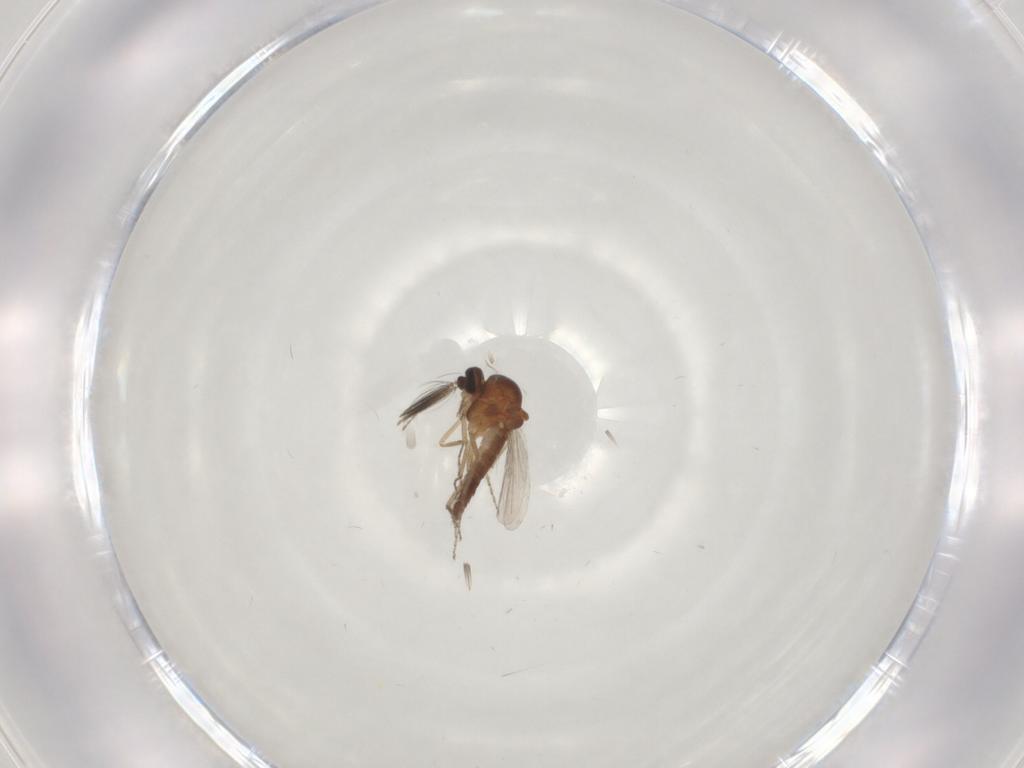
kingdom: Animalia
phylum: Arthropoda
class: Insecta
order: Diptera
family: Ceratopogonidae
